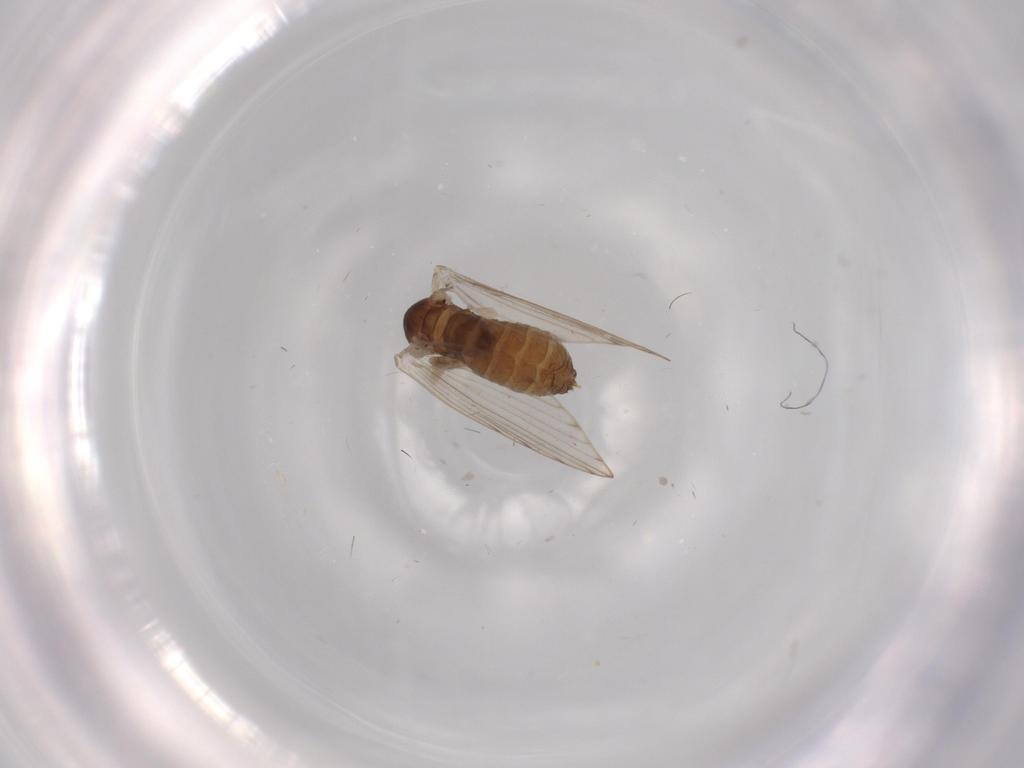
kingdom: Animalia
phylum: Arthropoda
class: Insecta
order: Diptera
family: Psychodidae
